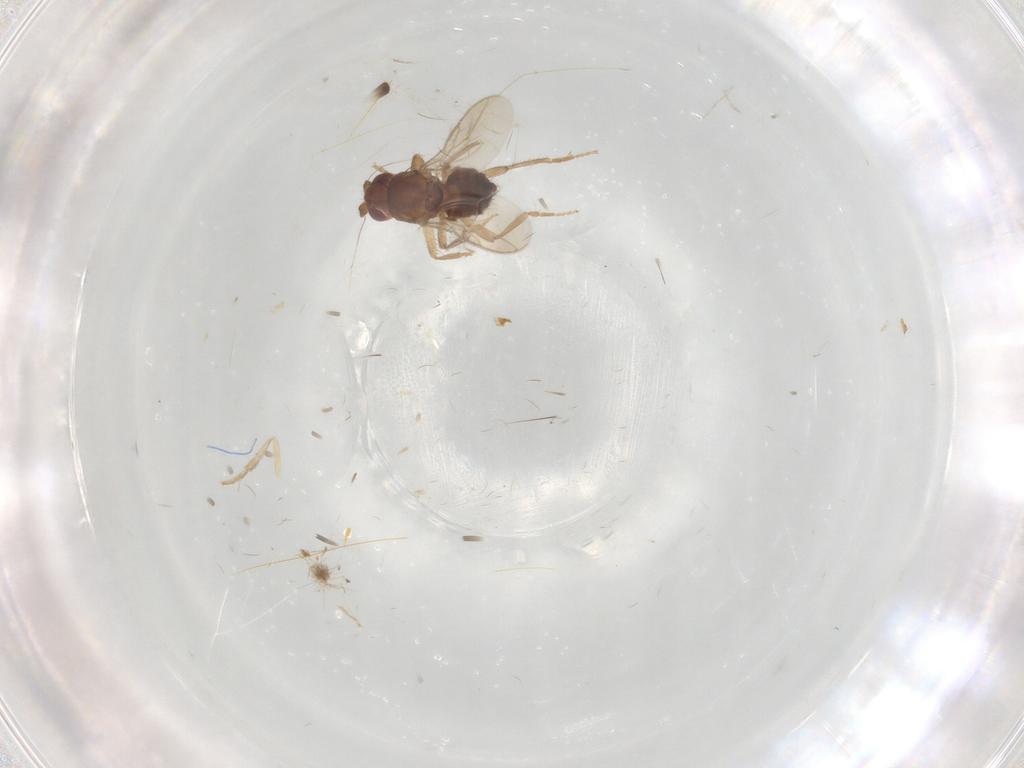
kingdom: Animalia
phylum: Arthropoda
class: Insecta
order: Diptera
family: Sphaeroceridae
